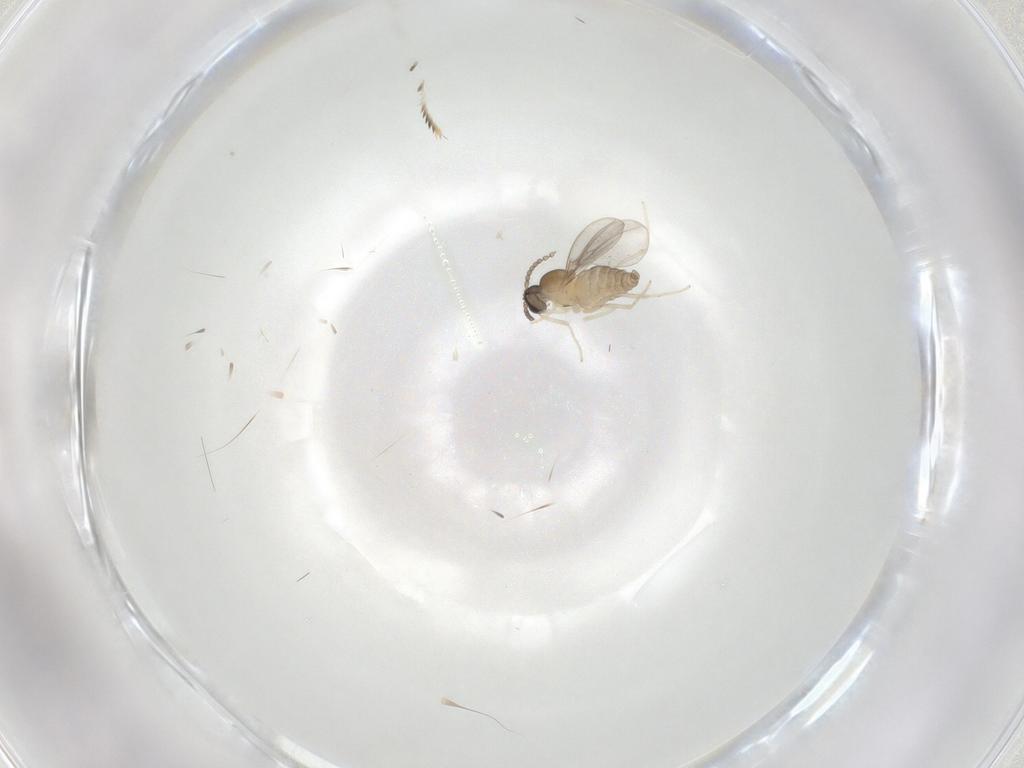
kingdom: Animalia
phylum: Arthropoda
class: Insecta
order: Diptera
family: Cecidomyiidae
